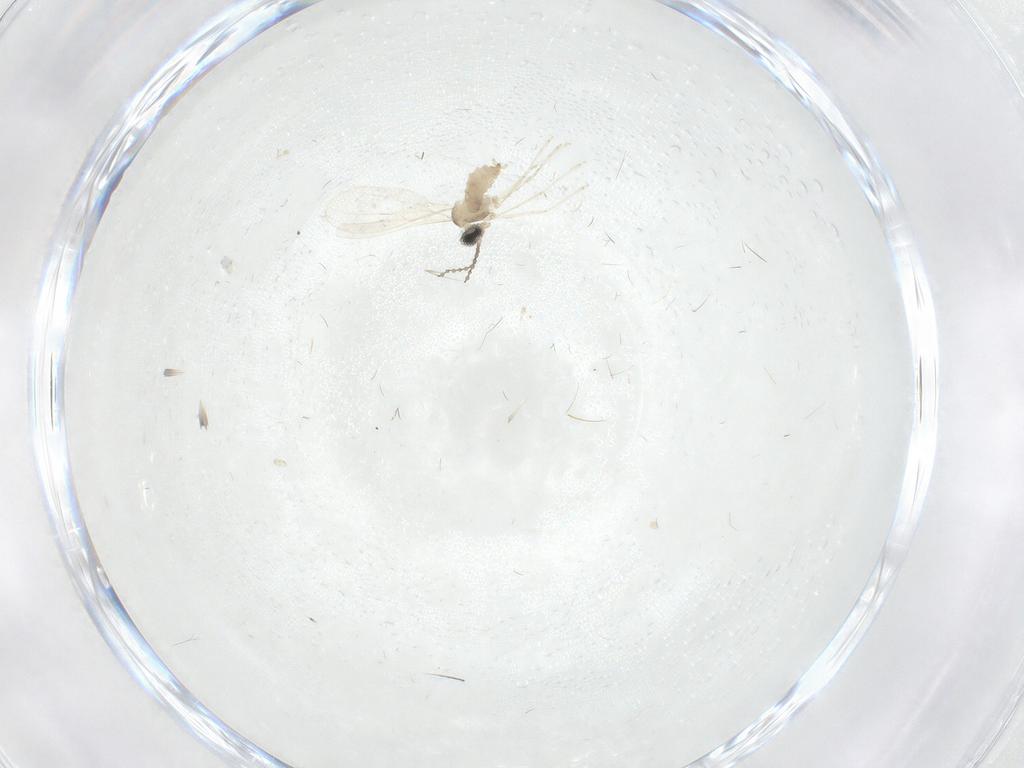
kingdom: Animalia
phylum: Arthropoda
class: Insecta
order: Diptera
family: Cecidomyiidae
